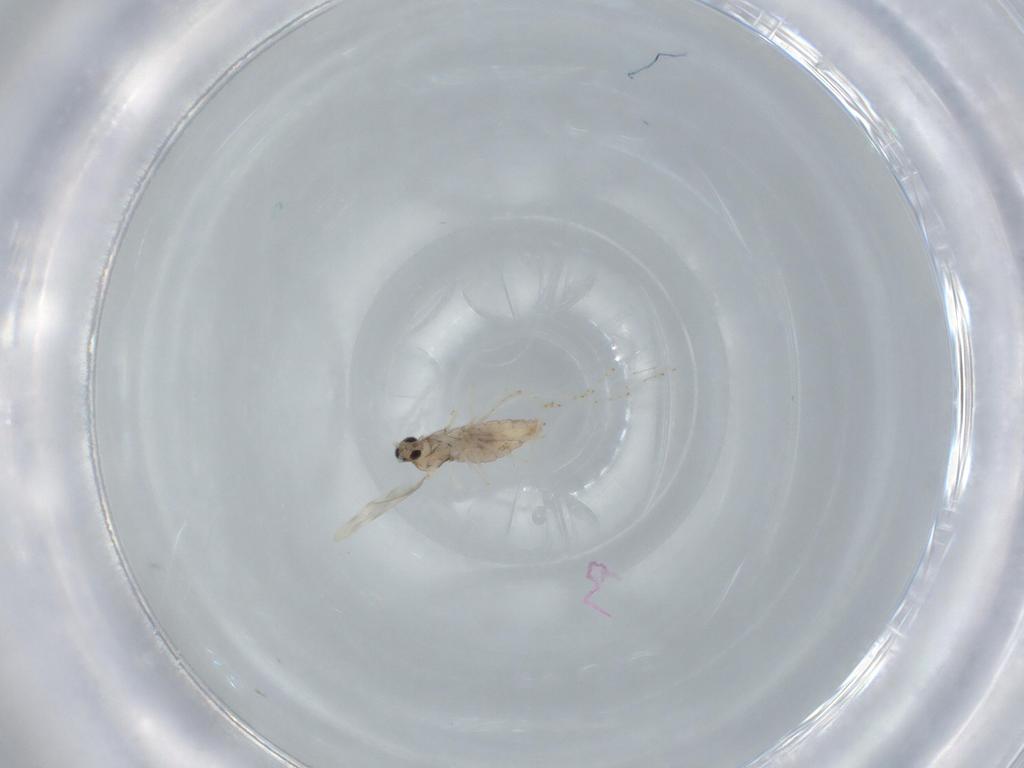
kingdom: Animalia
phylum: Arthropoda
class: Insecta
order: Diptera
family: Cecidomyiidae
